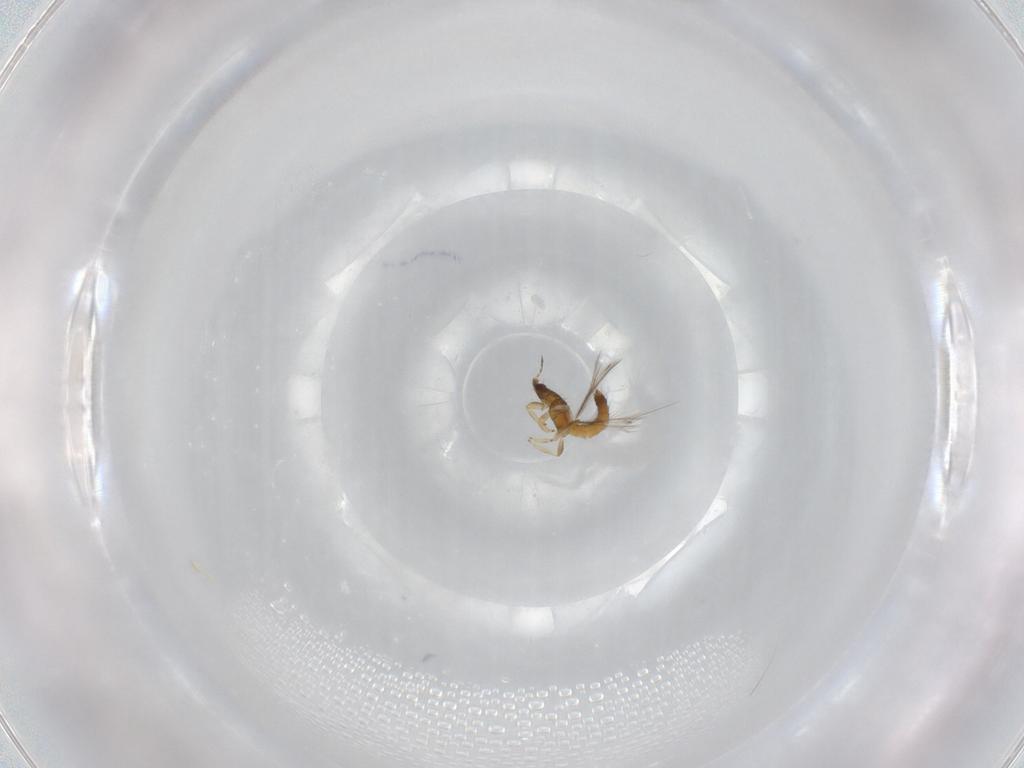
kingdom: Animalia
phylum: Arthropoda
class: Insecta
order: Thysanoptera
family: Thripidae
